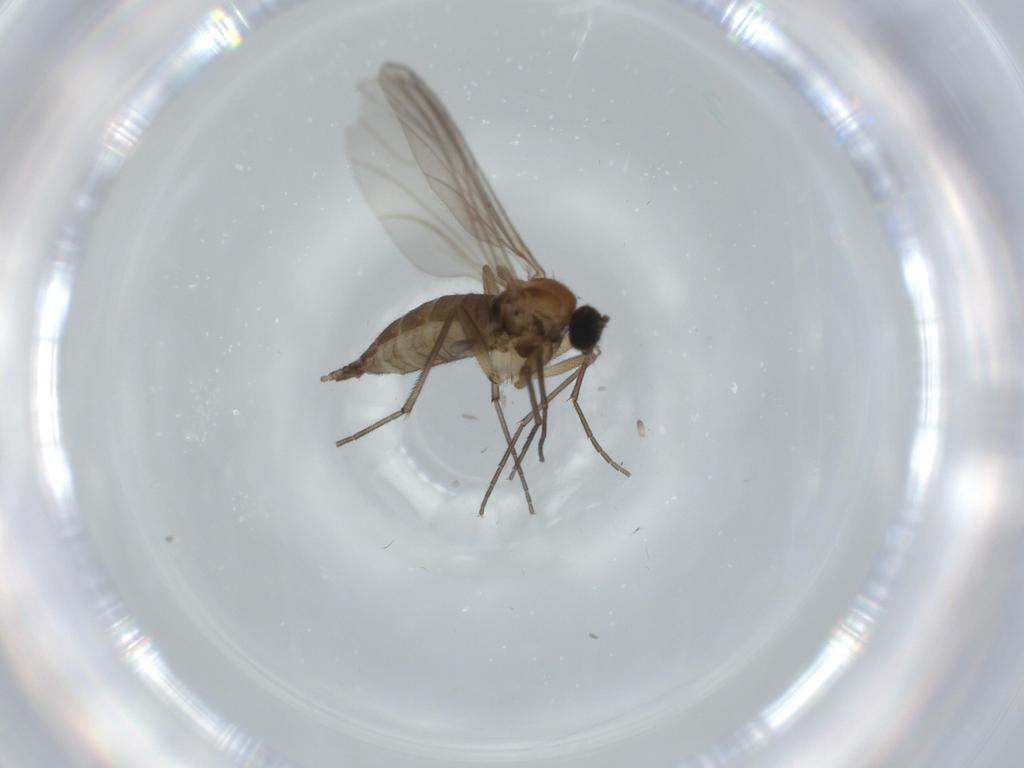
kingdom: Animalia
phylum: Arthropoda
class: Insecta
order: Diptera
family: Sciaridae
